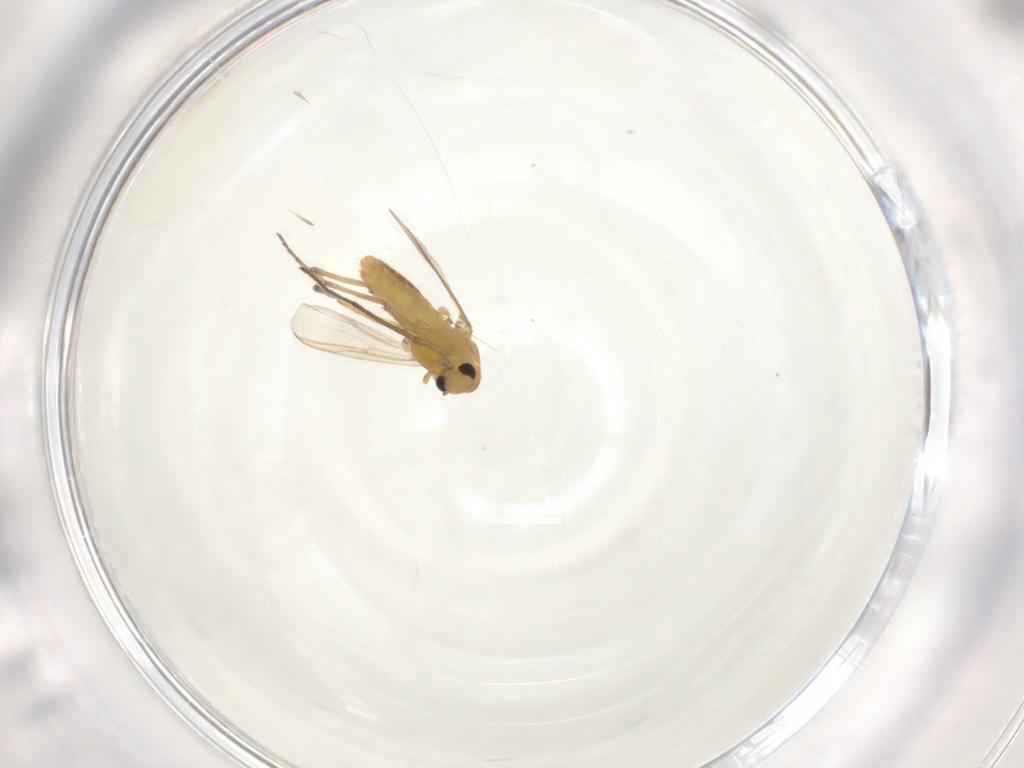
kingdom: Animalia
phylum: Arthropoda
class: Insecta
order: Diptera
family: Chironomidae
